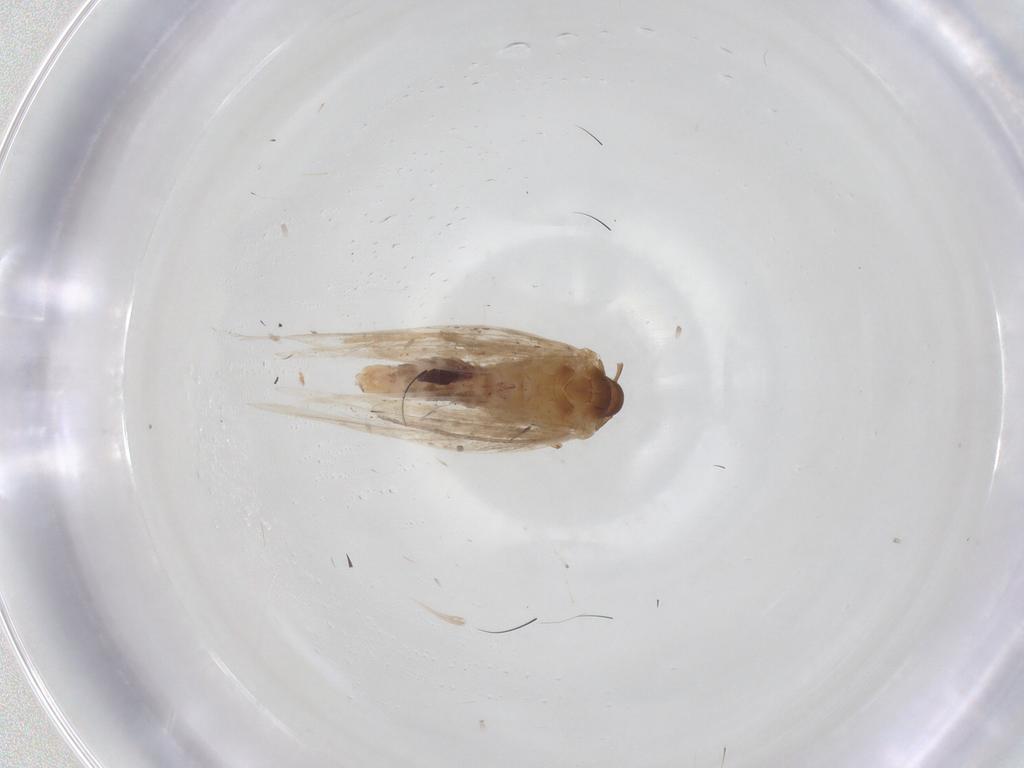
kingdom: Animalia
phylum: Arthropoda
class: Insecta
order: Lepidoptera
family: Gelechiidae
